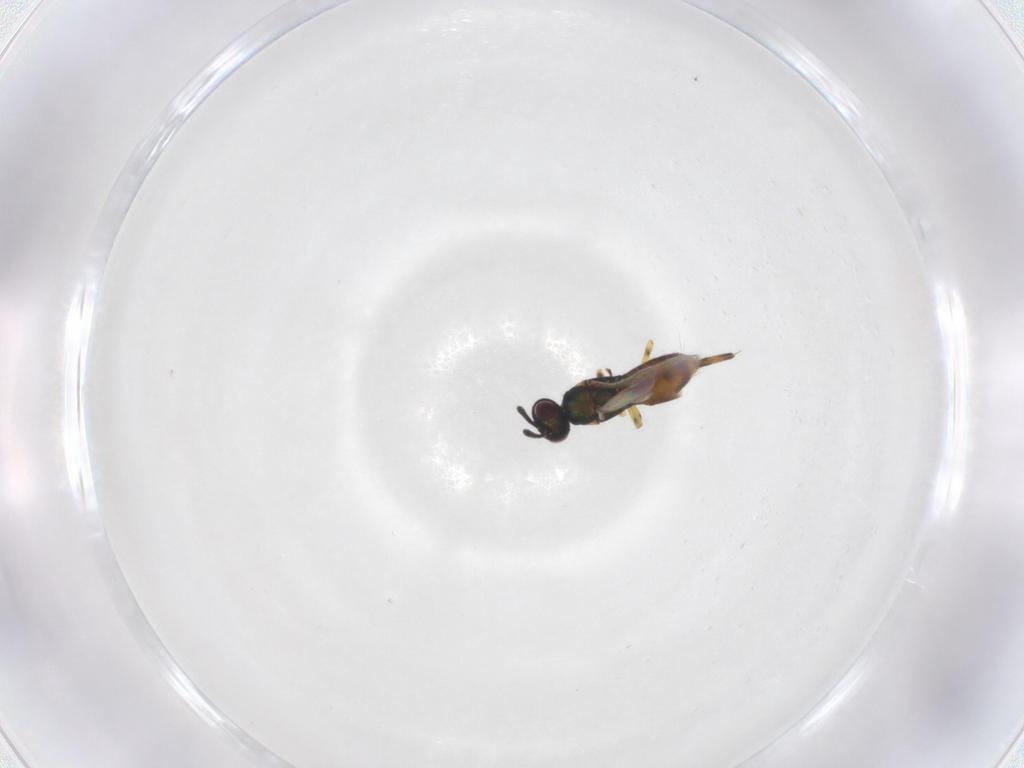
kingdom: Animalia
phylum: Arthropoda
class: Insecta
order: Hymenoptera
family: Eupelmidae
